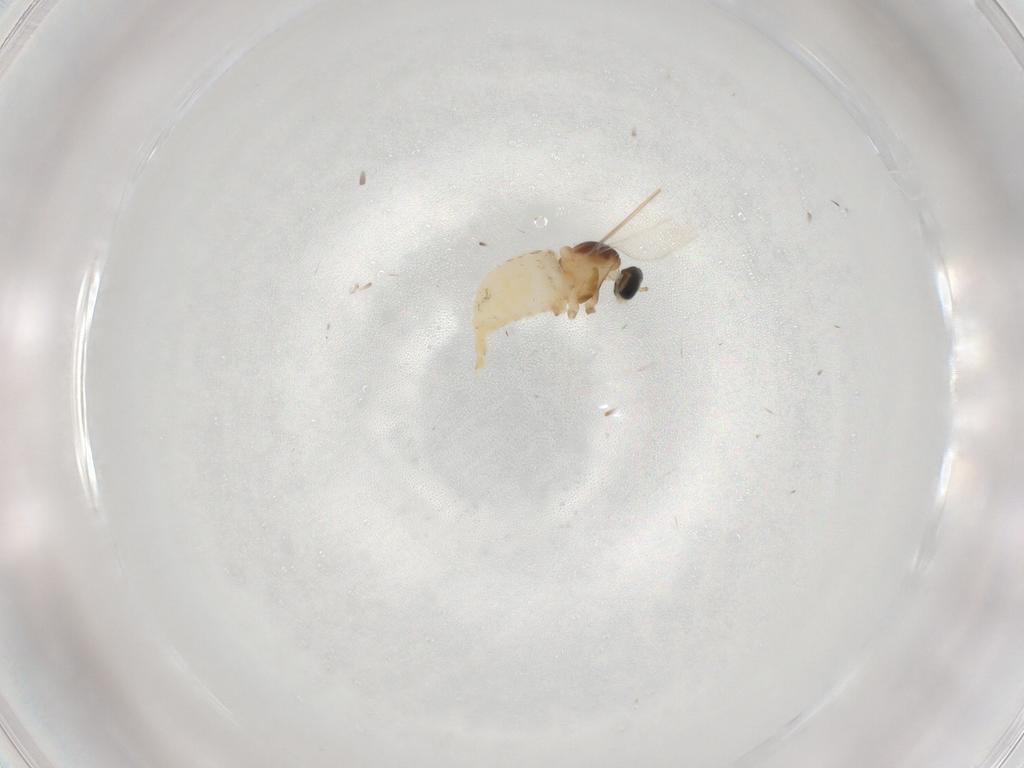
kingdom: Animalia
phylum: Arthropoda
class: Insecta
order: Diptera
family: Cecidomyiidae
